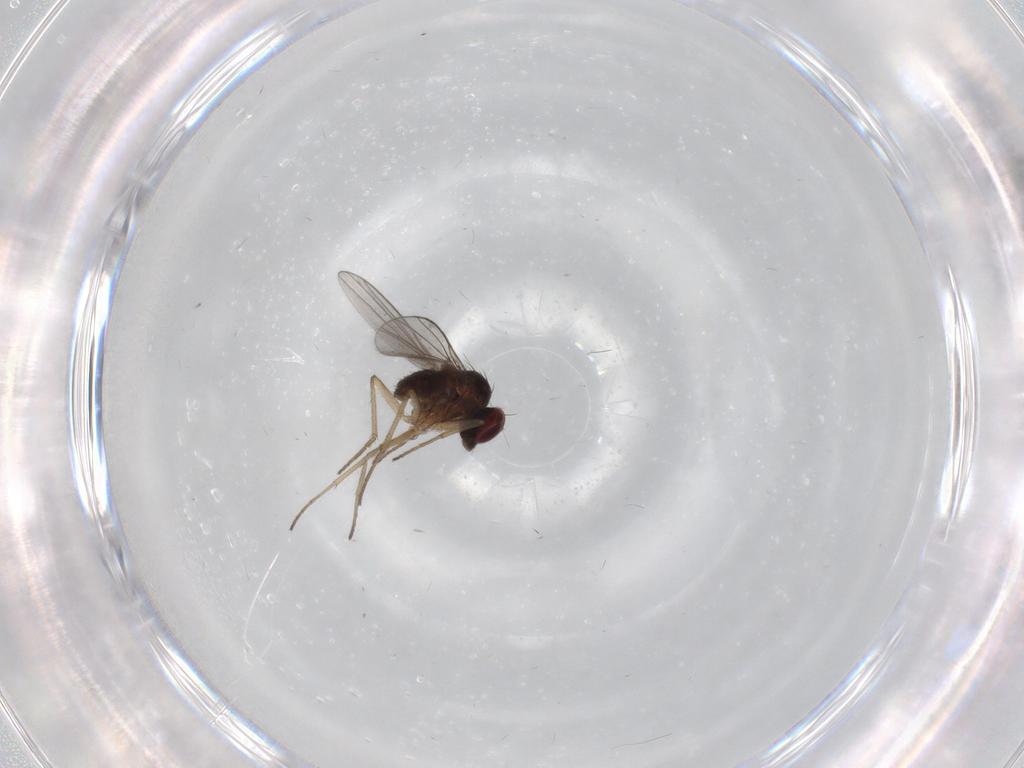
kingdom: Animalia
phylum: Arthropoda
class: Insecta
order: Diptera
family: Dolichopodidae
